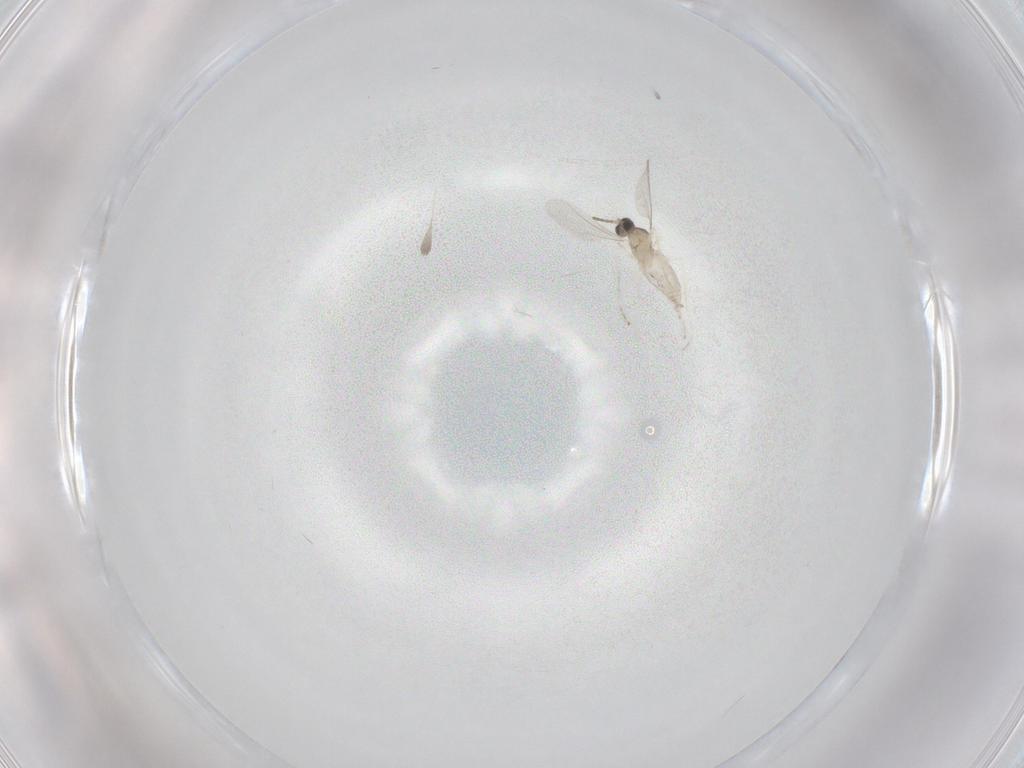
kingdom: Animalia
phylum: Arthropoda
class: Insecta
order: Diptera
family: Cecidomyiidae
